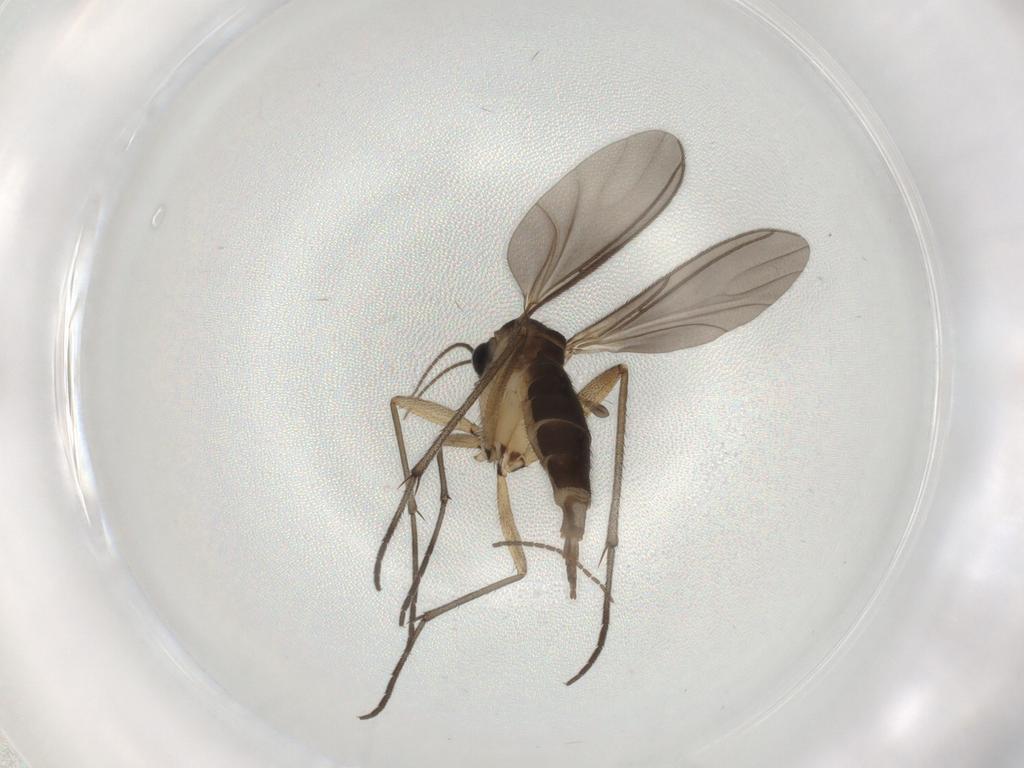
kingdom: Animalia
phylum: Arthropoda
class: Insecta
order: Diptera
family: Sciaridae
